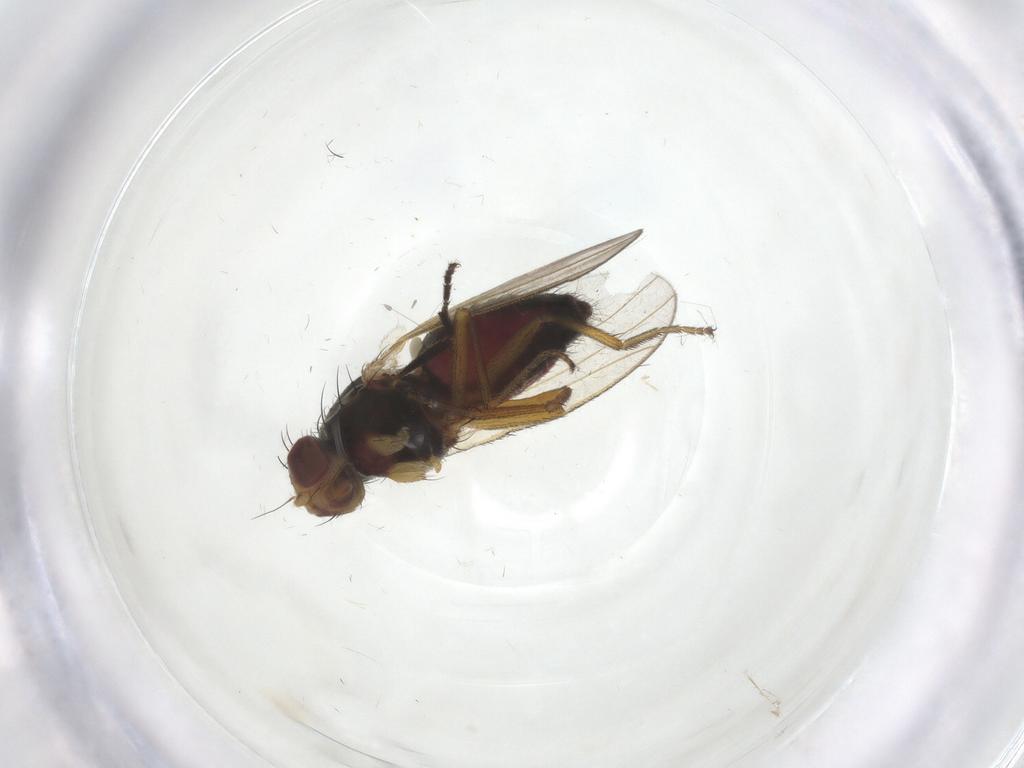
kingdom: Animalia
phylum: Arthropoda
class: Insecta
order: Diptera
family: Heleomyzidae
